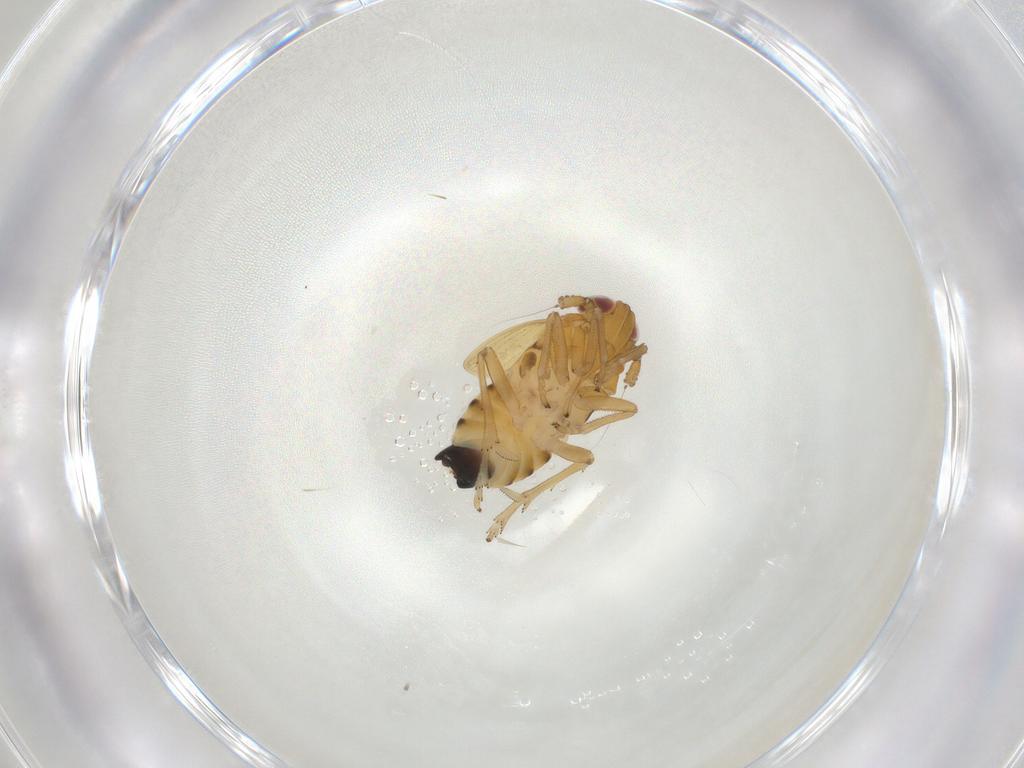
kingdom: Animalia
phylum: Arthropoda
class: Insecta
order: Hemiptera
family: Delphacidae
